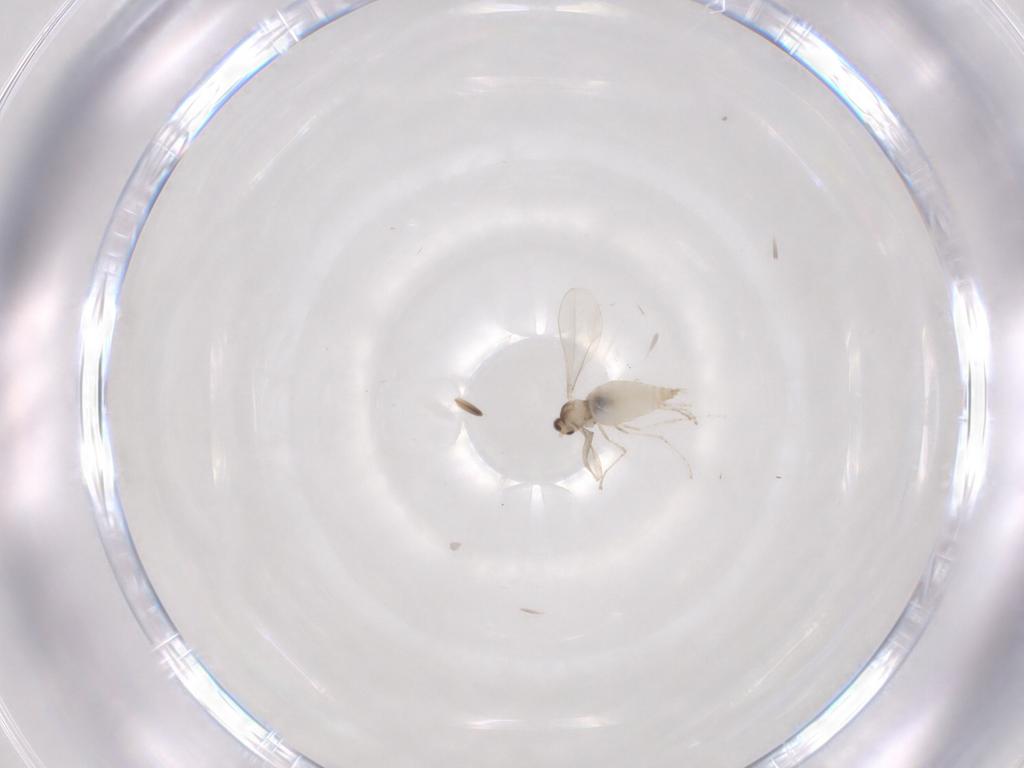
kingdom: Animalia
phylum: Arthropoda
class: Insecta
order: Diptera
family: Cecidomyiidae
